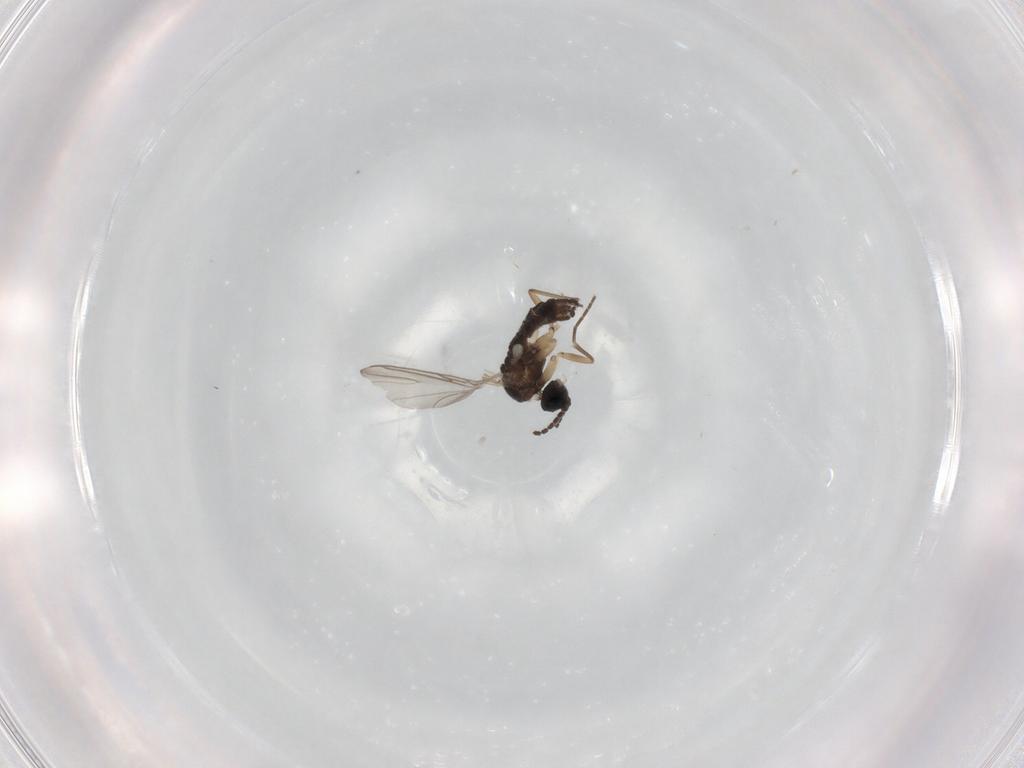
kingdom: Animalia
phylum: Arthropoda
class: Insecta
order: Diptera
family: Sciaridae
